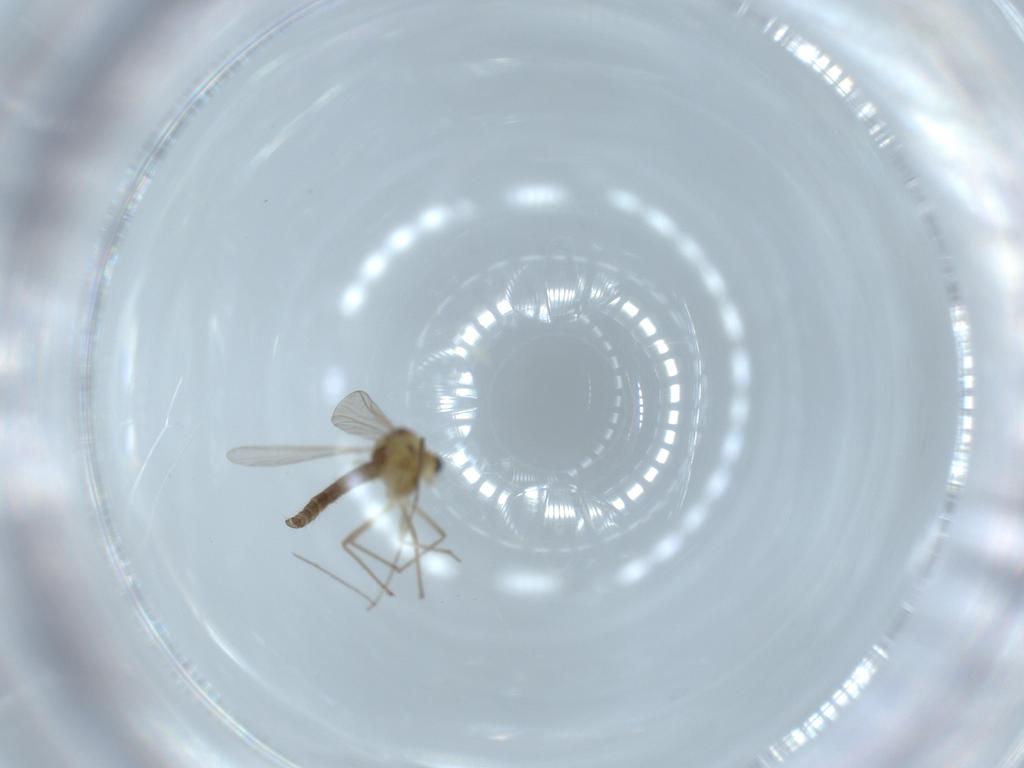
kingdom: Animalia
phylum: Arthropoda
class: Insecta
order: Diptera
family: Chironomidae
